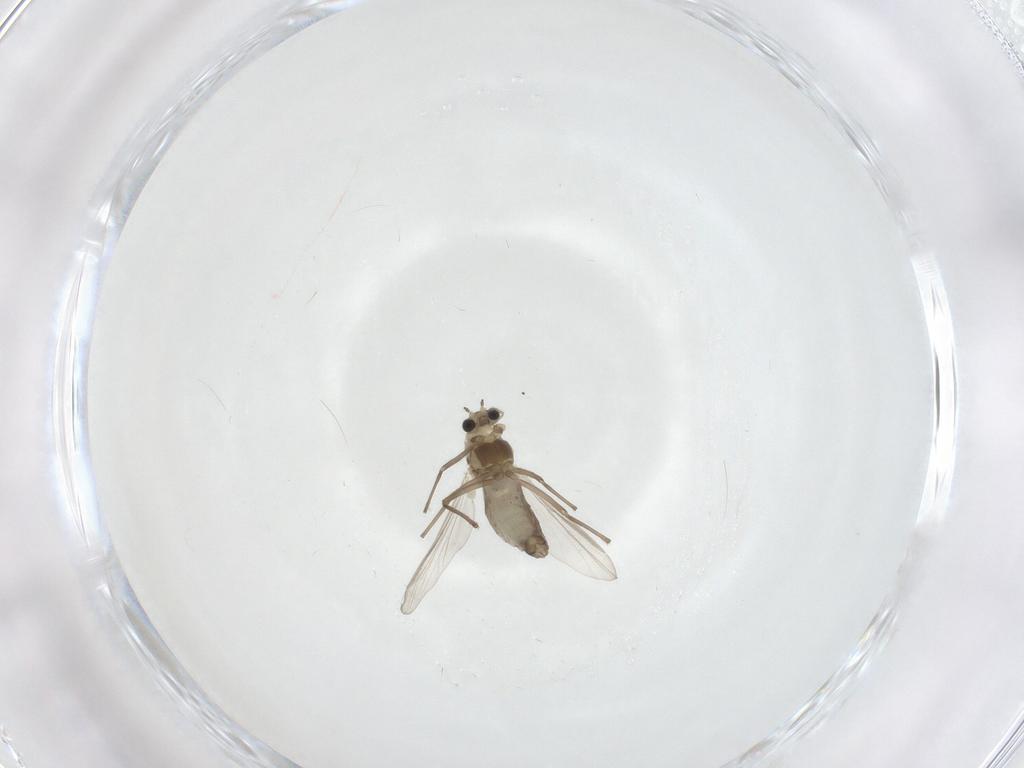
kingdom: Animalia
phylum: Arthropoda
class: Insecta
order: Diptera
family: Chironomidae
